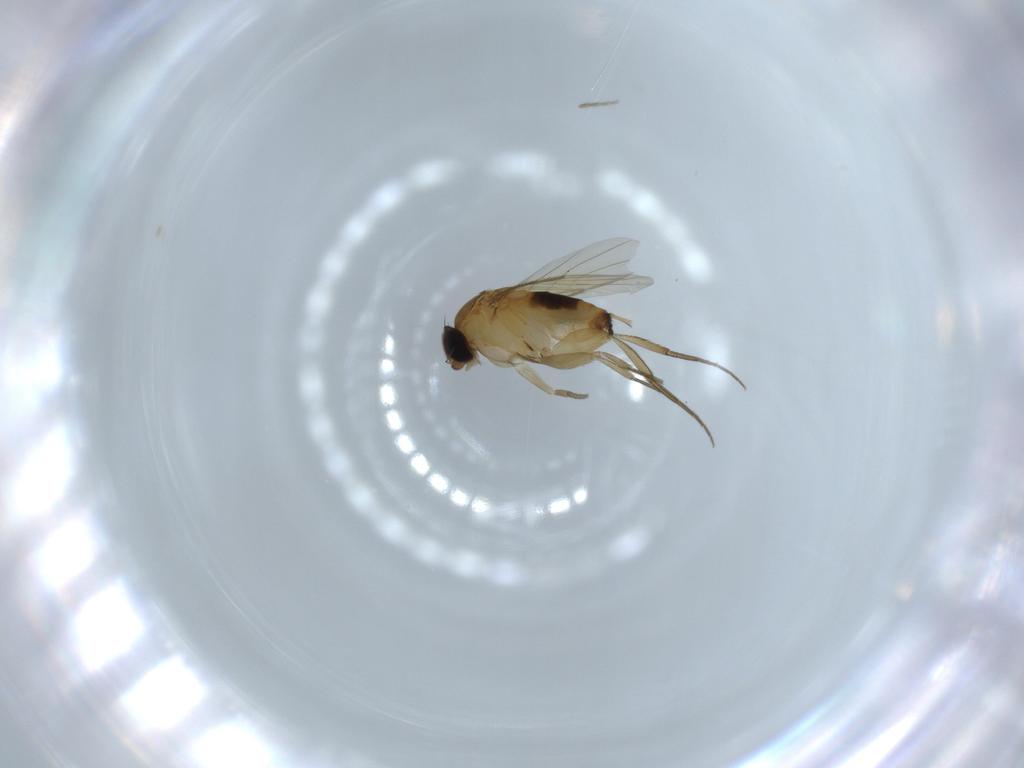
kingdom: Animalia
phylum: Arthropoda
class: Insecta
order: Diptera
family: Phoridae
